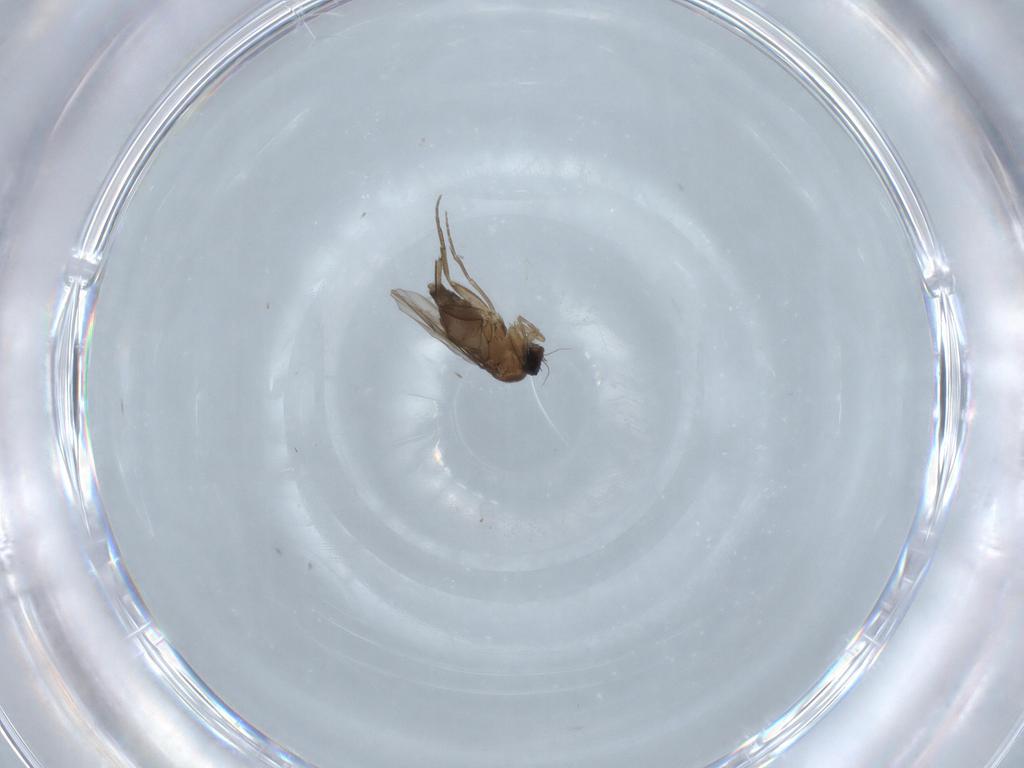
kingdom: Animalia
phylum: Arthropoda
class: Insecta
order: Diptera
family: Phoridae
